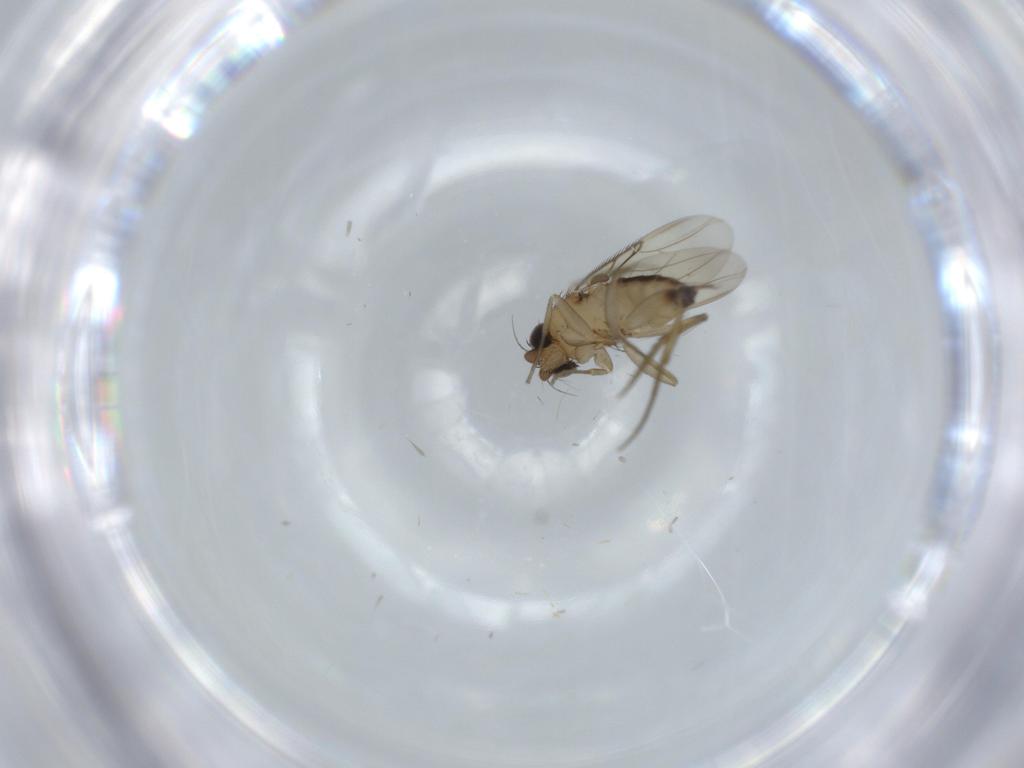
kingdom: Animalia
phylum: Arthropoda
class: Insecta
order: Diptera
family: Phoridae
